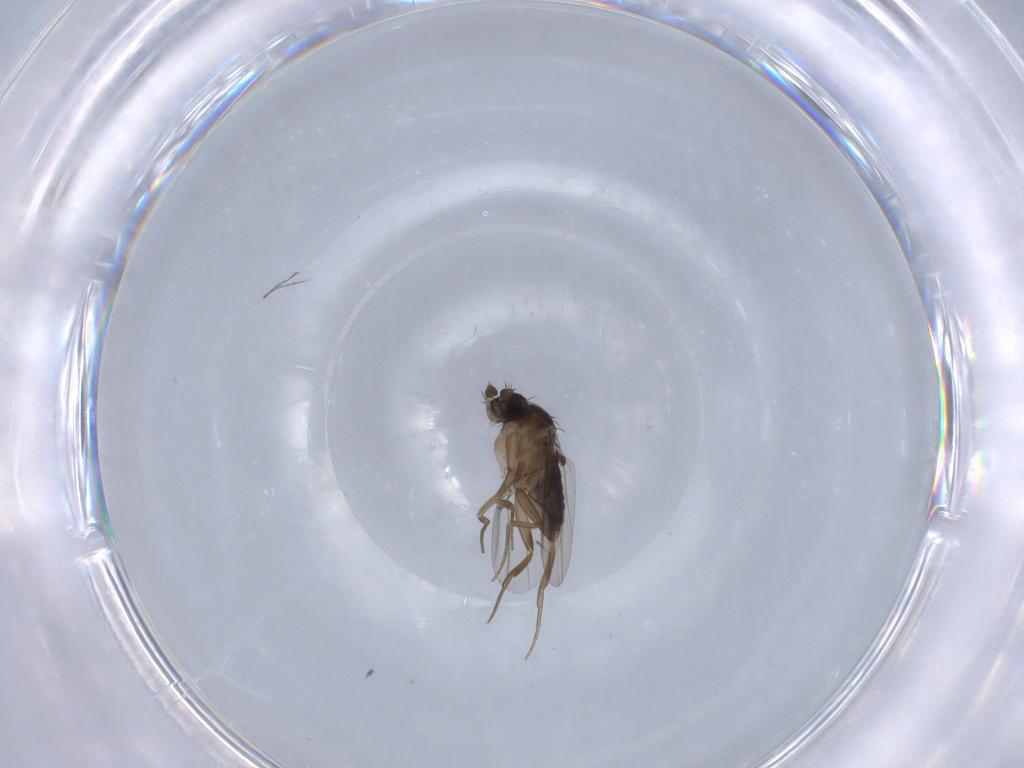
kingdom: Animalia
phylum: Arthropoda
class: Insecta
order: Diptera
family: Phoridae
